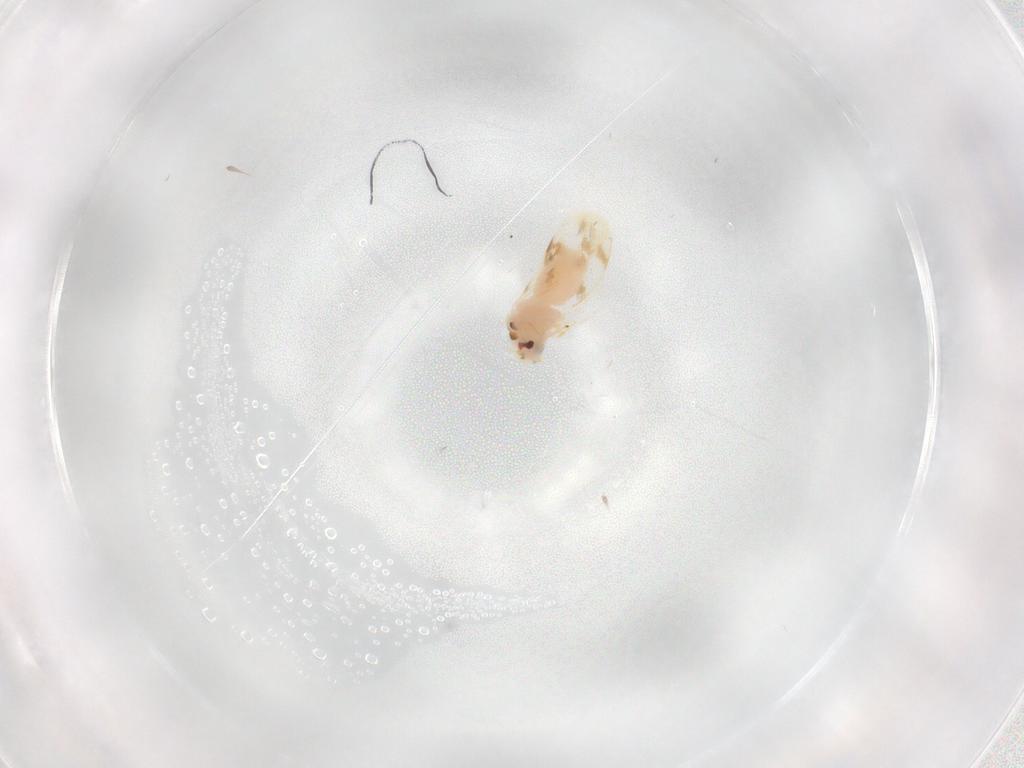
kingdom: Animalia
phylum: Arthropoda
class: Insecta
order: Hemiptera
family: Aleyrodidae
